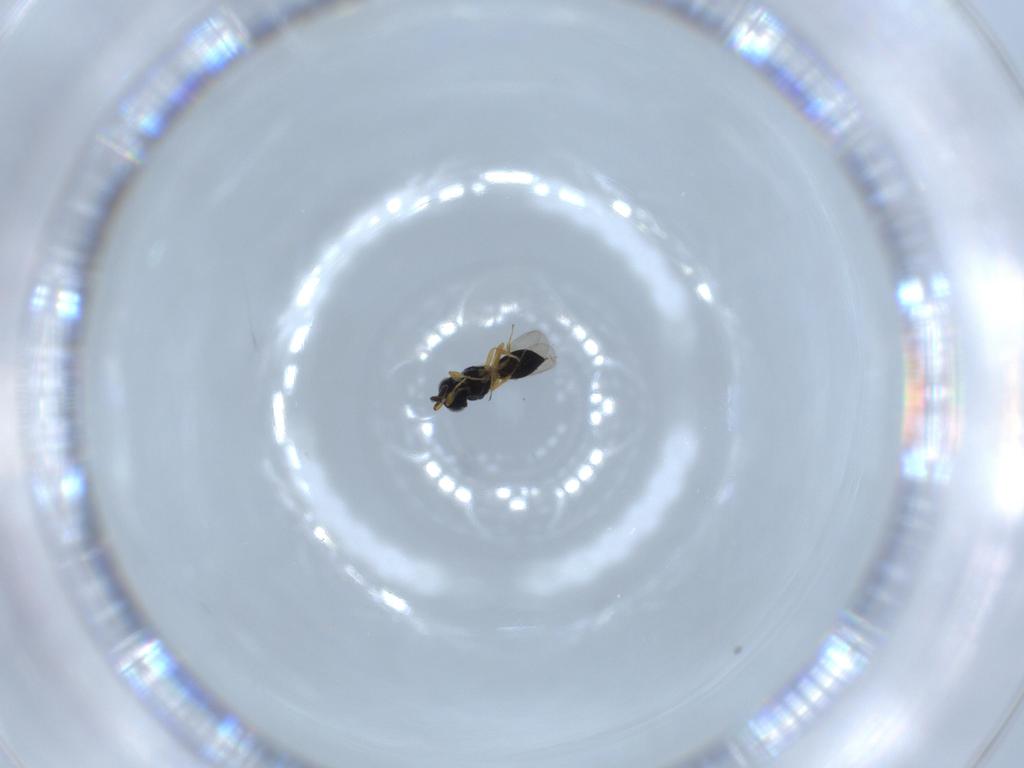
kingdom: Animalia
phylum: Arthropoda
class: Insecta
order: Hymenoptera
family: Scelionidae
